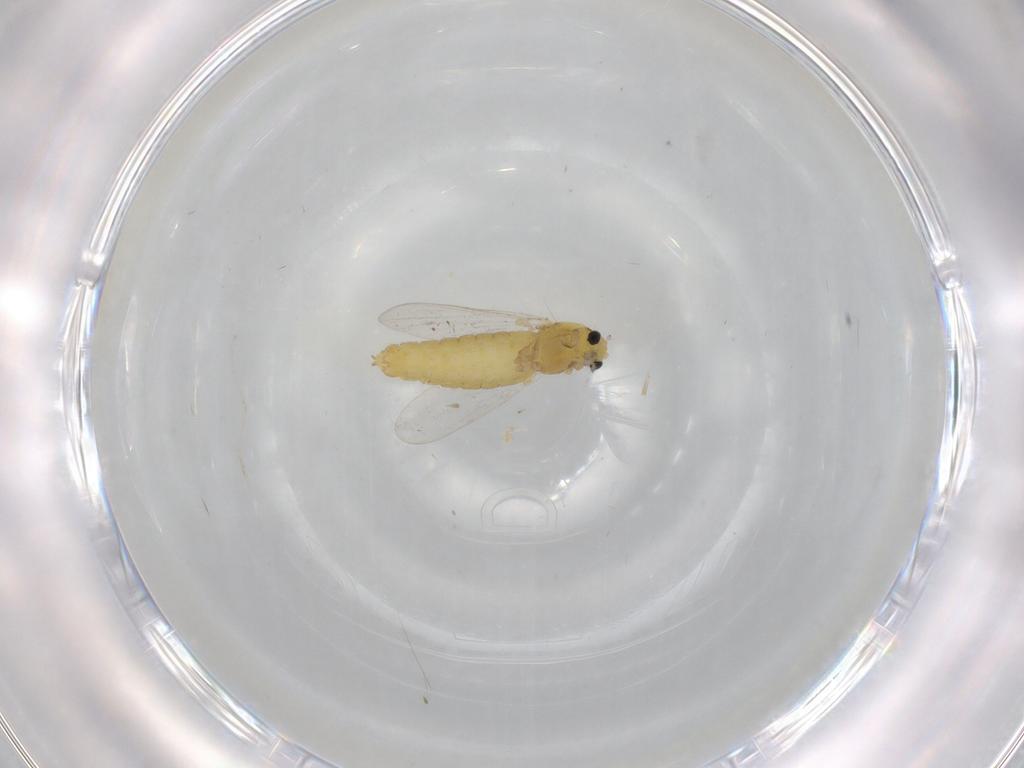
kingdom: Animalia
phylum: Arthropoda
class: Insecta
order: Diptera
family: Chironomidae
